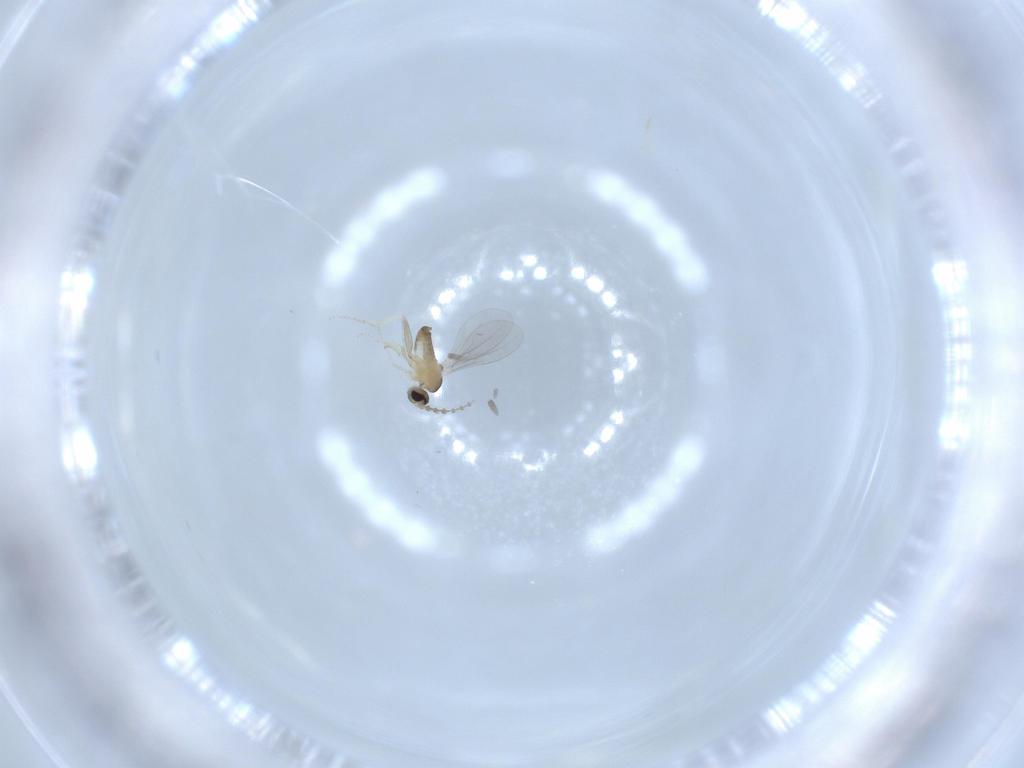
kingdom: Animalia
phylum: Arthropoda
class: Insecta
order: Diptera
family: Cecidomyiidae
